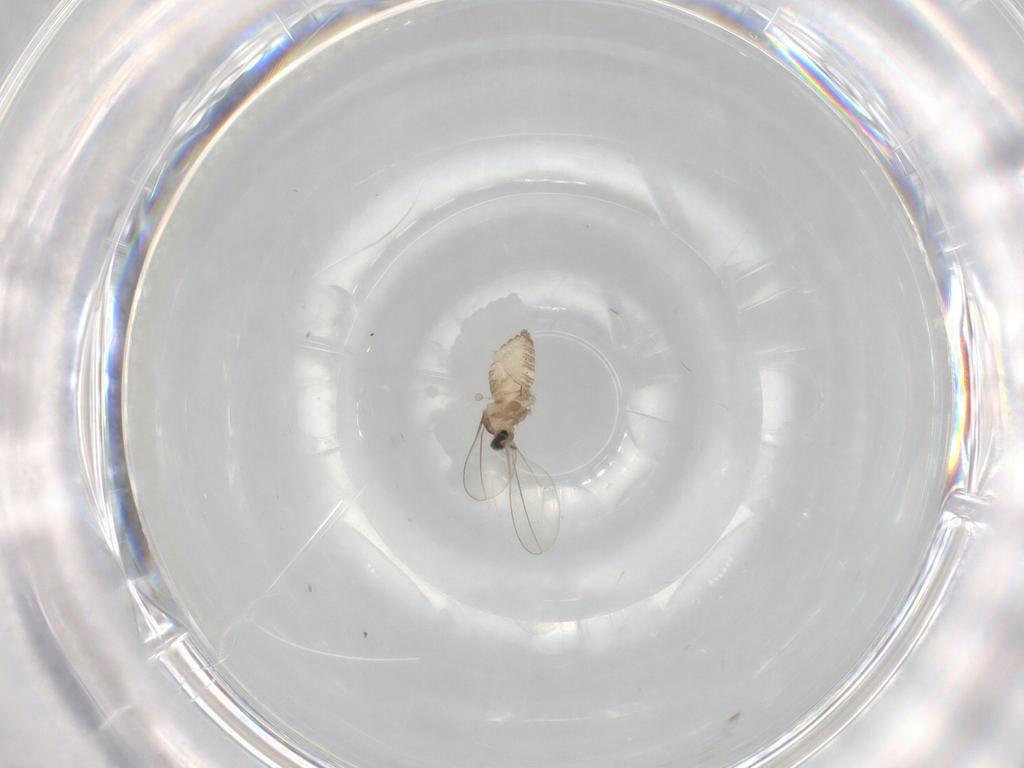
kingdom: Animalia
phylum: Arthropoda
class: Insecta
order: Diptera
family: Cecidomyiidae
